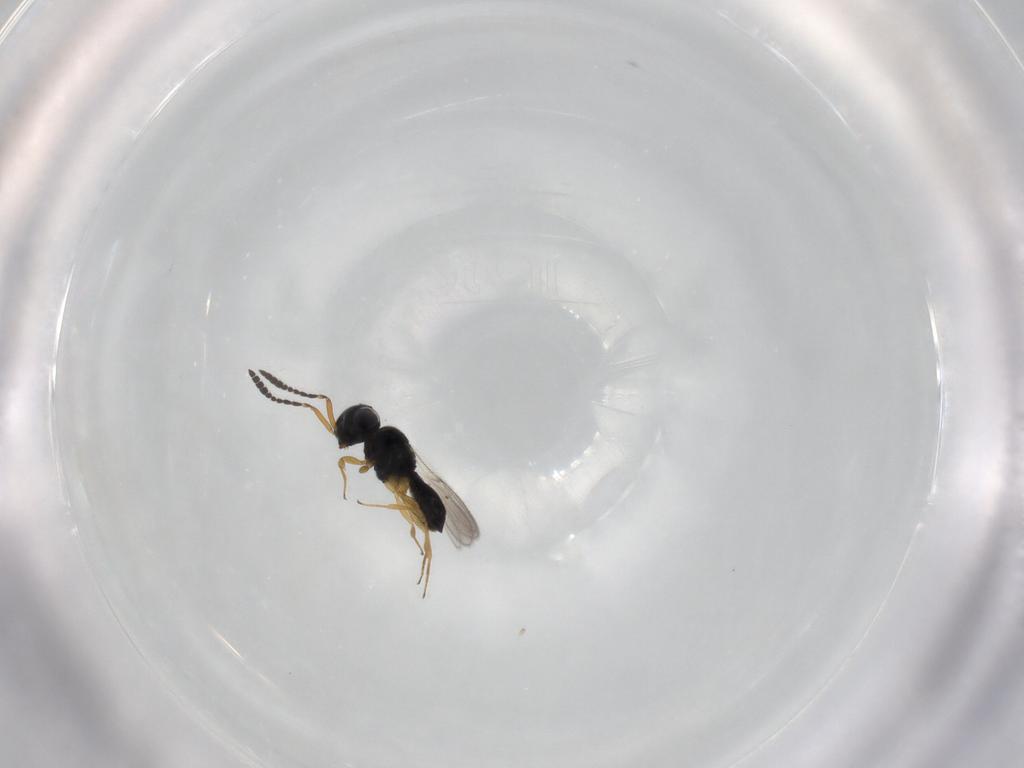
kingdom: Animalia
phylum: Arthropoda
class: Insecta
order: Hymenoptera
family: Scelionidae
